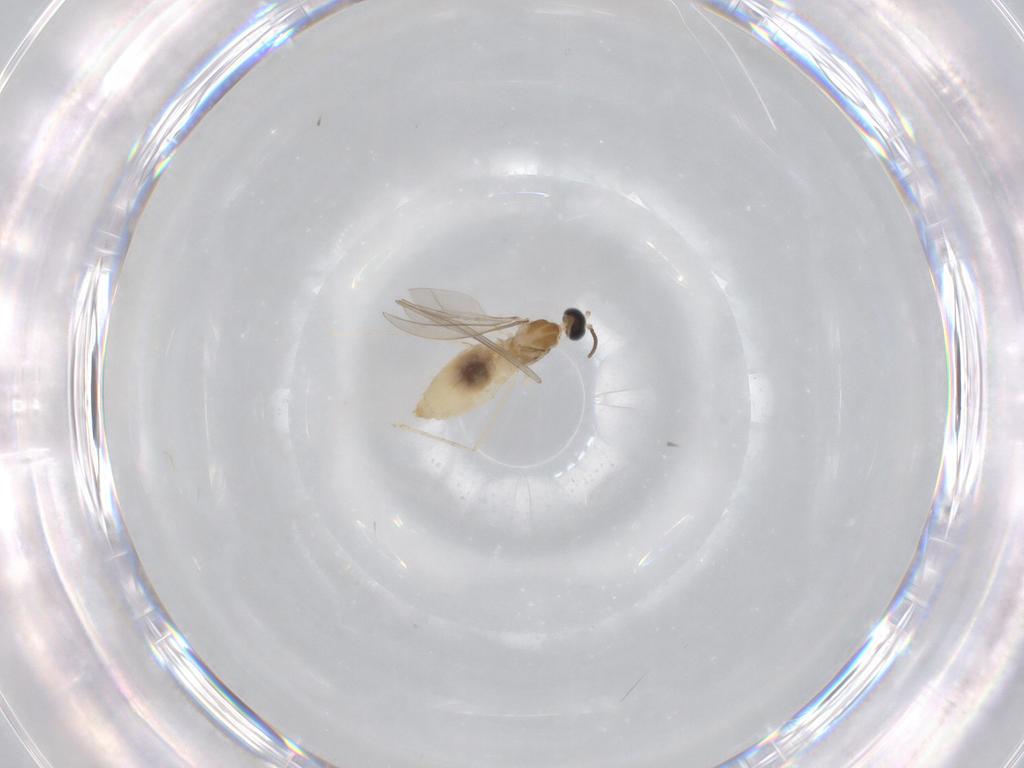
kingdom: Animalia
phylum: Arthropoda
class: Insecta
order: Diptera
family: Cecidomyiidae
